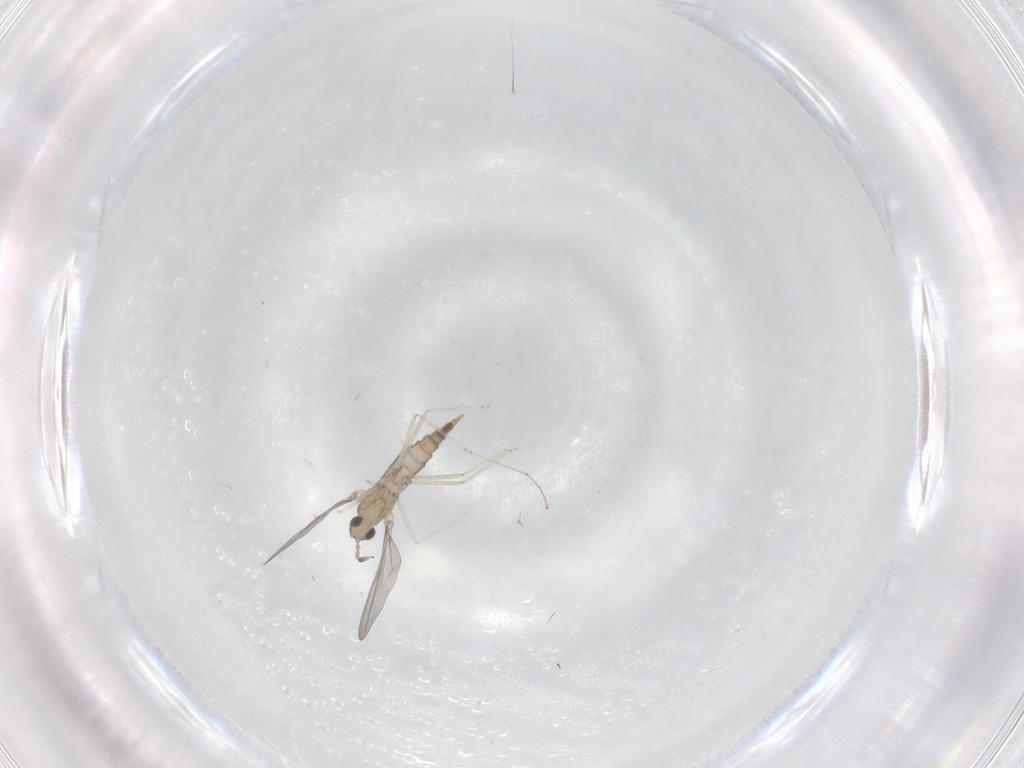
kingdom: Animalia
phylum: Arthropoda
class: Insecta
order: Diptera
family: Cecidomyiidae
